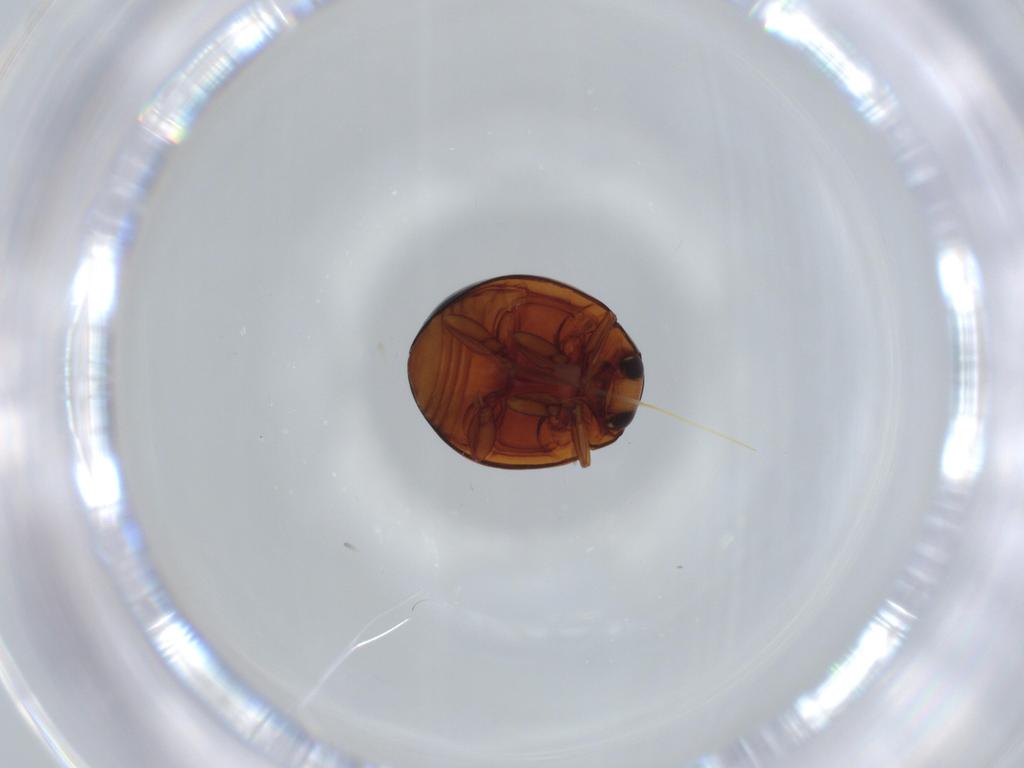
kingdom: Animalia
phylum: Arthropoda
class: Insecta
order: Coleoptera
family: Coccinellidae
